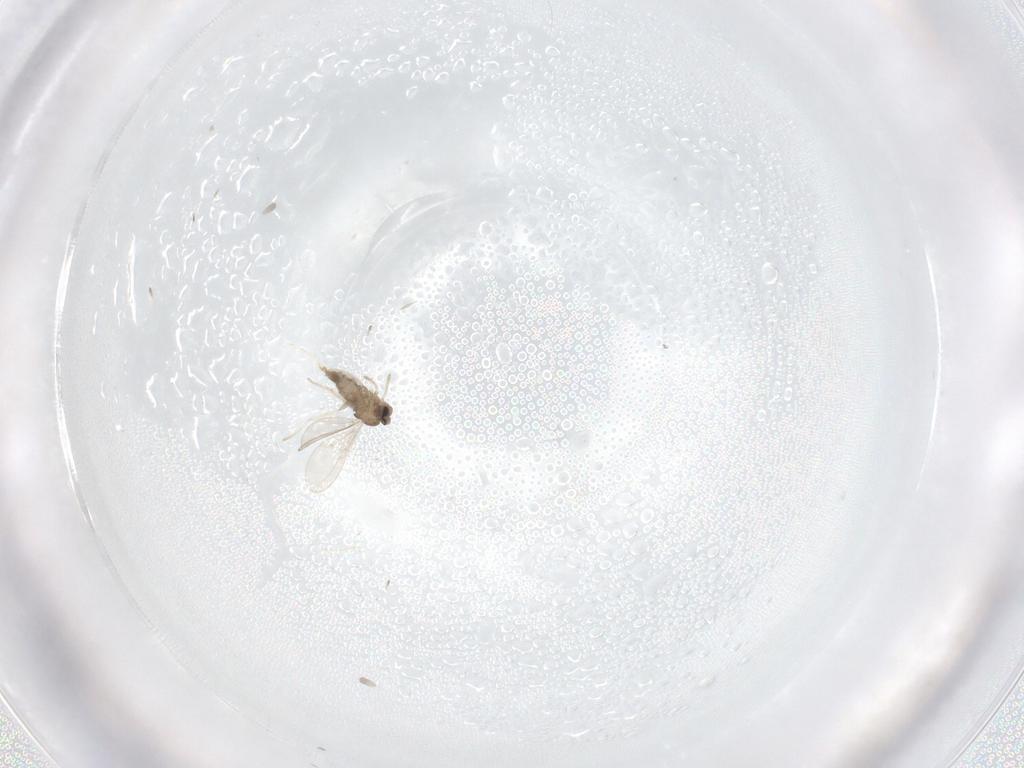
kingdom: Animalia
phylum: Arthropoda
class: Insecta
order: Diptera
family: Cecidomyiidae
